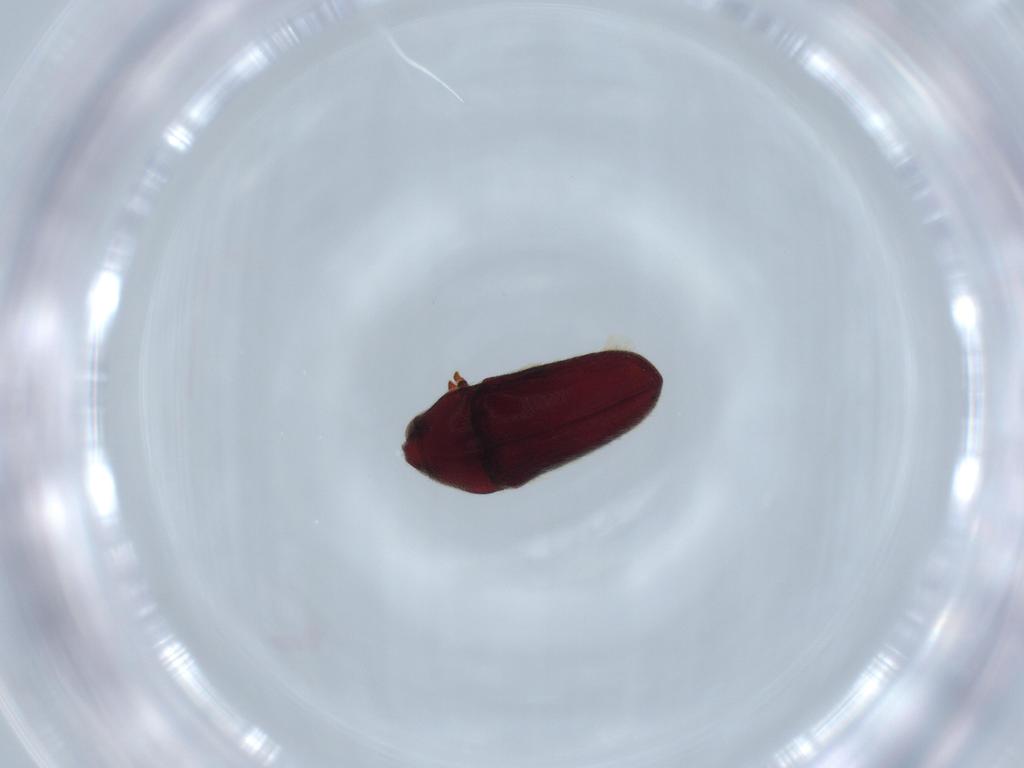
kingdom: Animalia
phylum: Arthropoda
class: Insecta
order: Coleoptera
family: Throscidae
